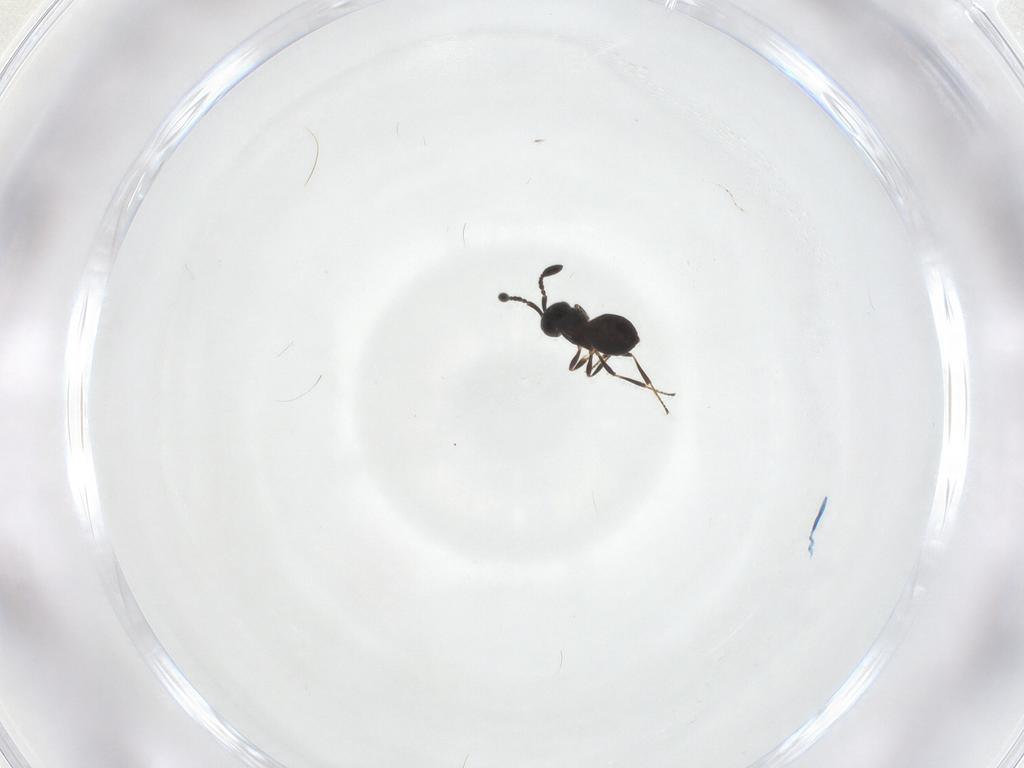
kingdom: Animalia
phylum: Arthropoda
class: Insecta
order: Hymenoptera
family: Scelionidae
